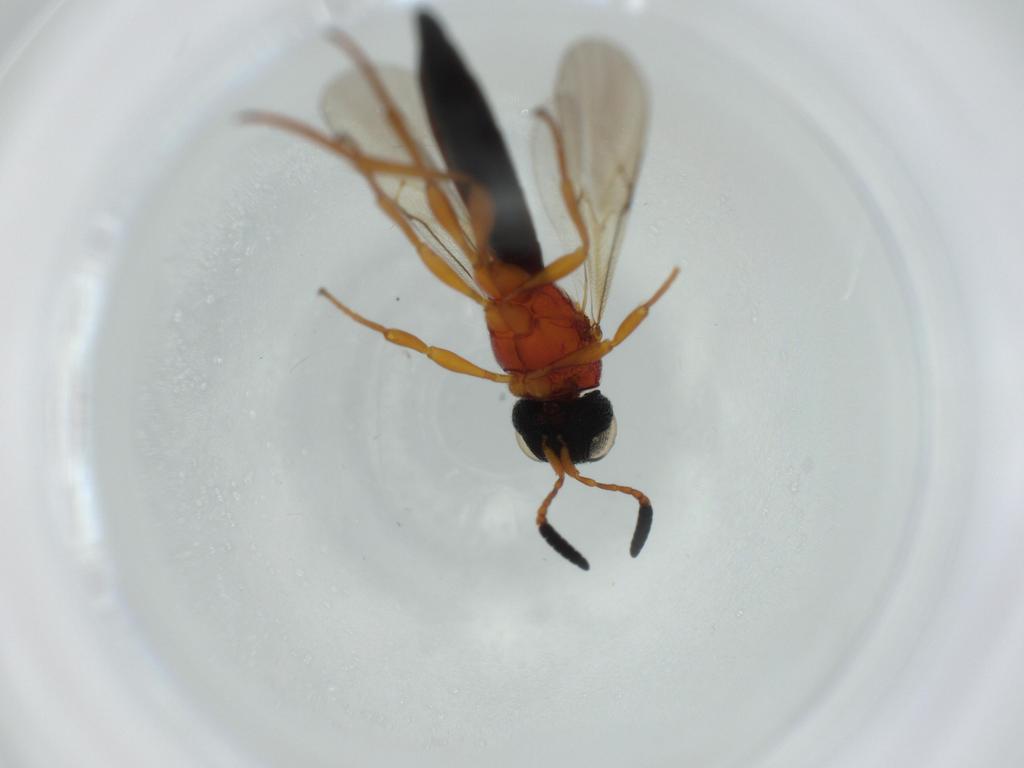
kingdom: Animalia
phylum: Arthropoda
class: Insecta
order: Hymenoptera
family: Scelionidae
